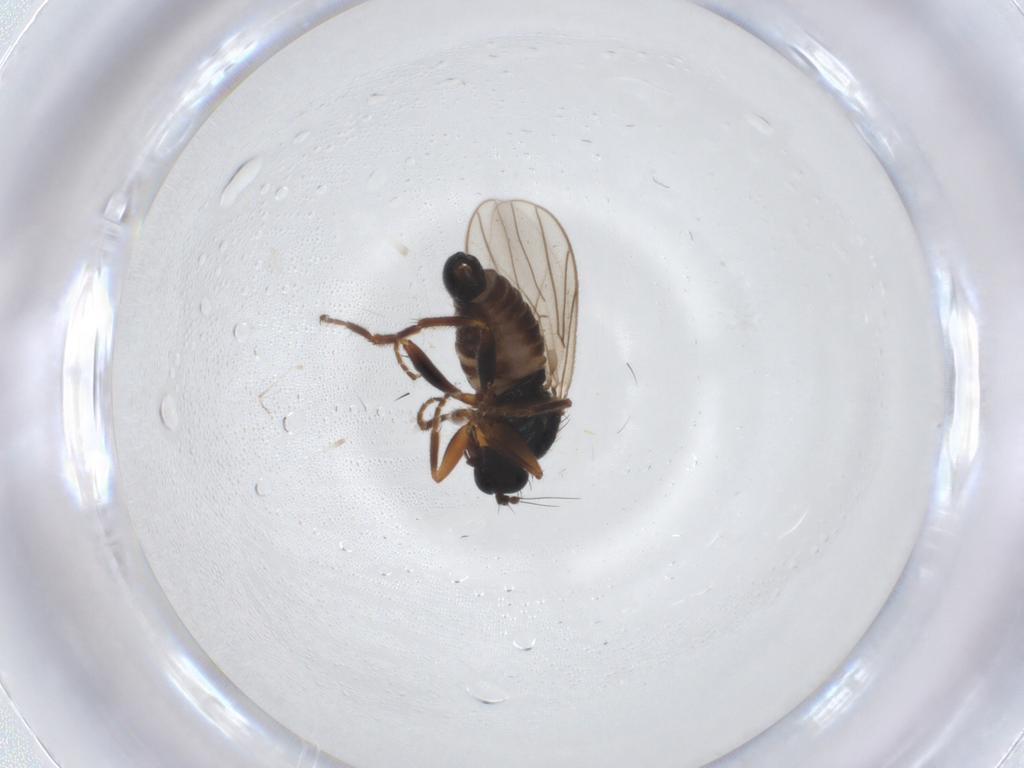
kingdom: Animalia
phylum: Arthropoda
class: Insecta
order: Diptera
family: Hybotidae
